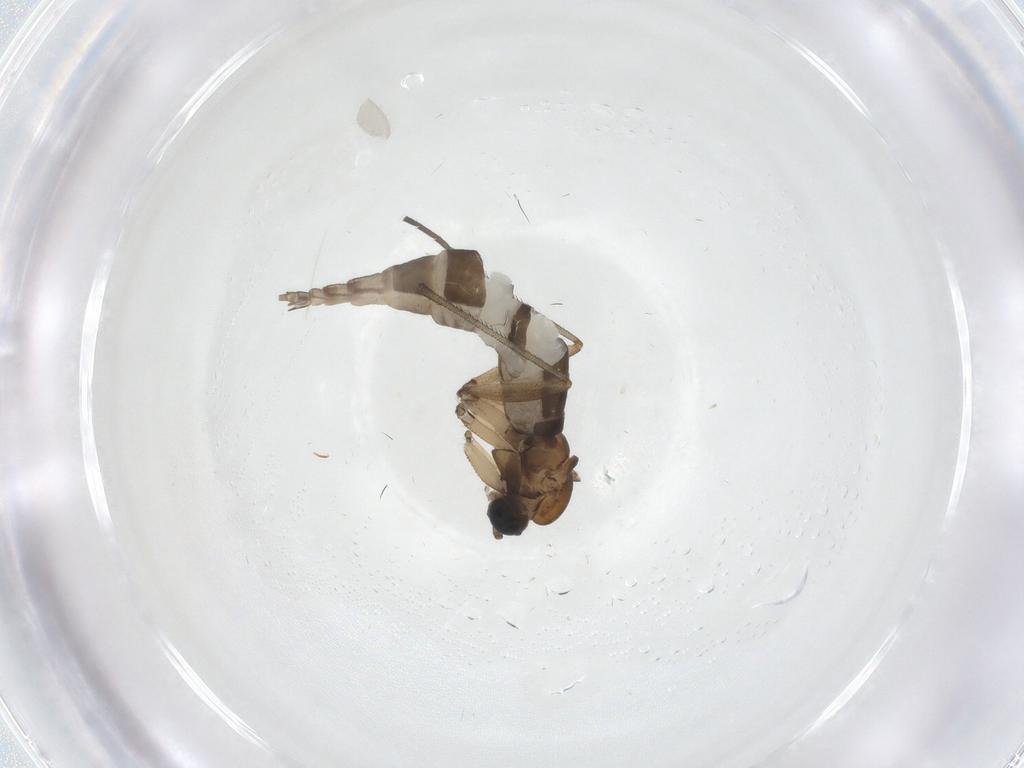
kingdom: Animalia
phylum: Arthropoda
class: Insecta
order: Diptera
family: Sciaridae
